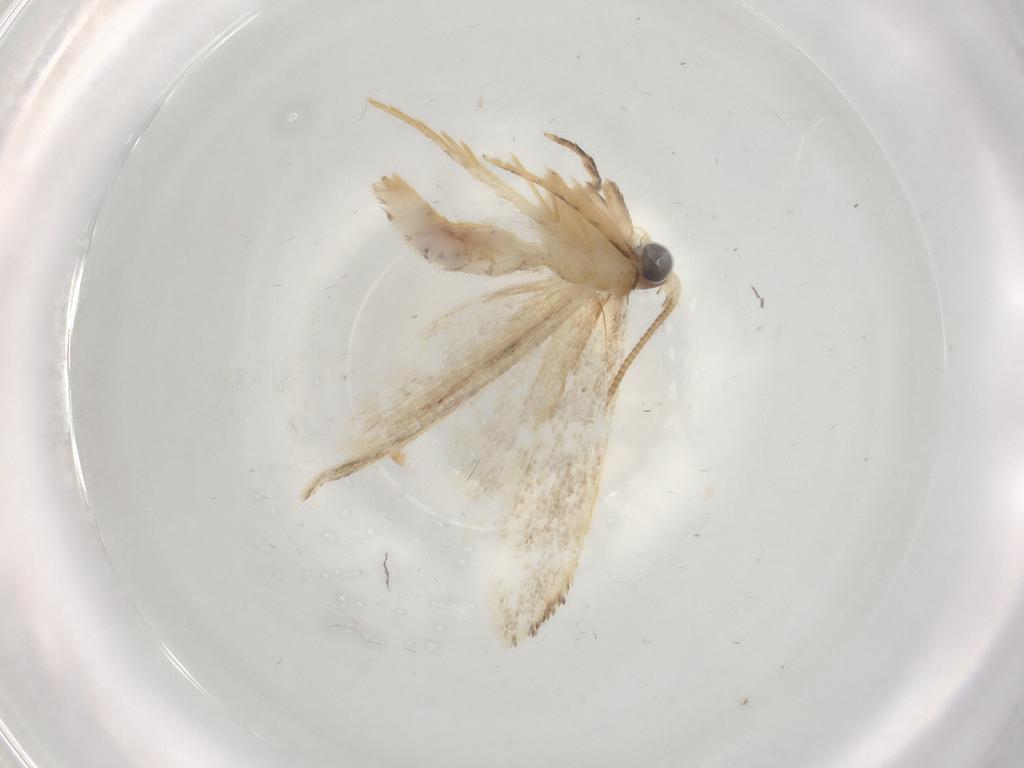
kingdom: Animalia
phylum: Arthropoda
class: Insecta
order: Lepidoptera
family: Nepticulidae
